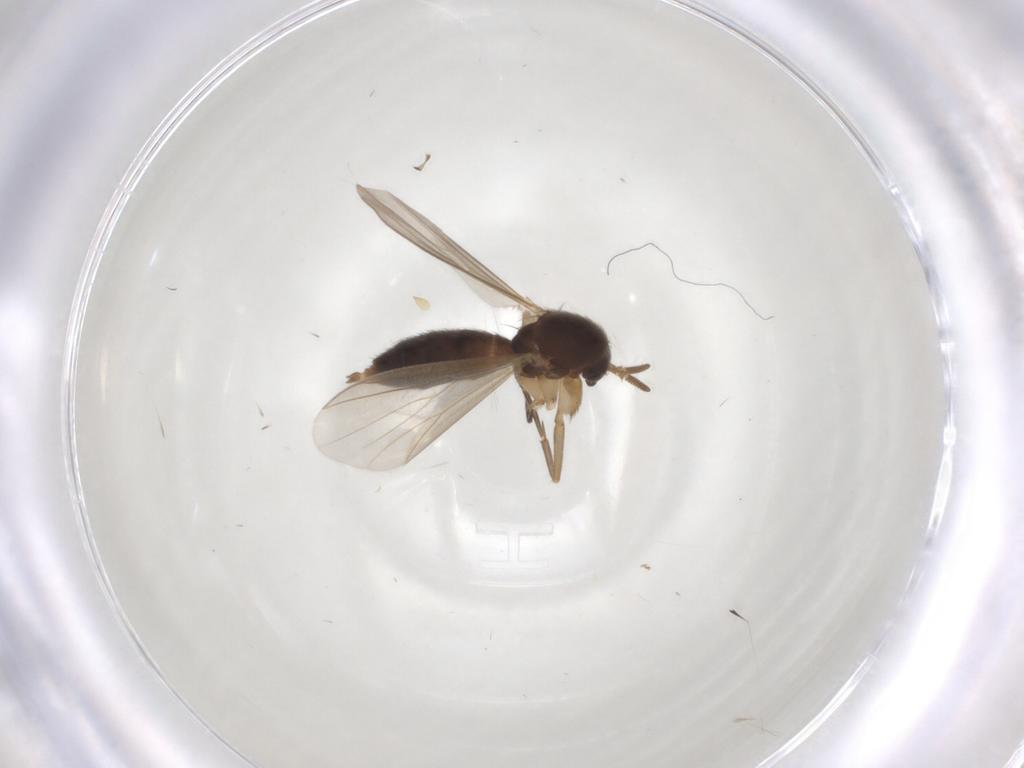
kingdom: Animalia
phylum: Arthropoda
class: Insecta
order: Diptera
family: Mycetophilidae
